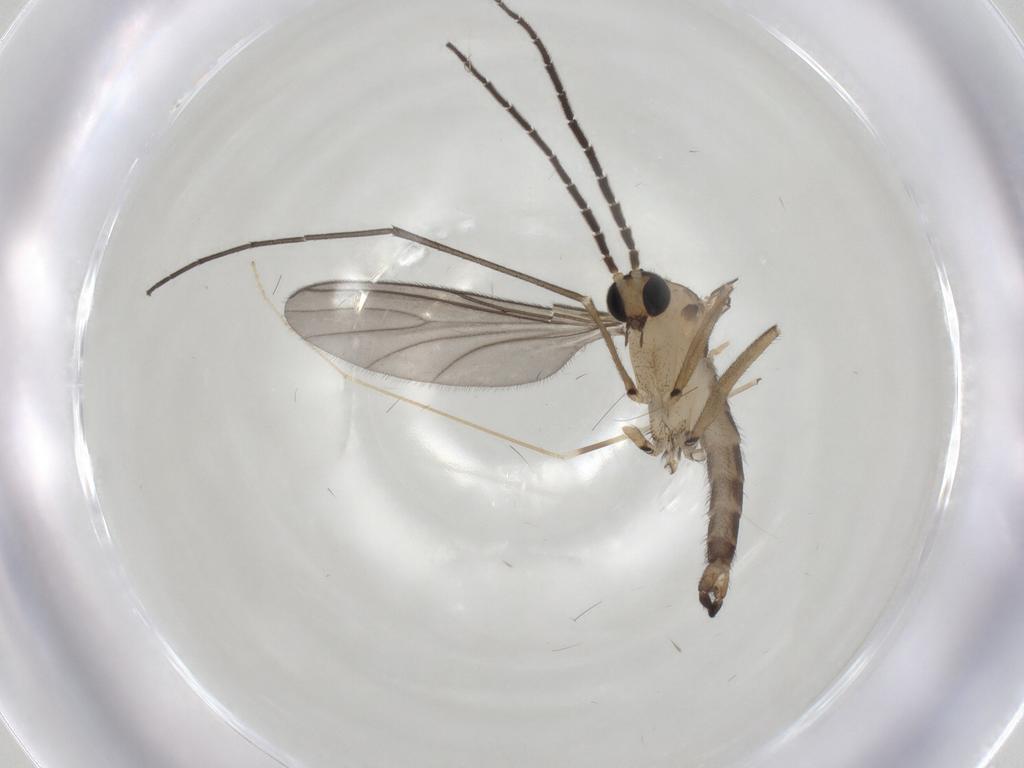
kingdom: Animalia
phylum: Arthropoda
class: Insecta
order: Diptera
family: Sciaridae
